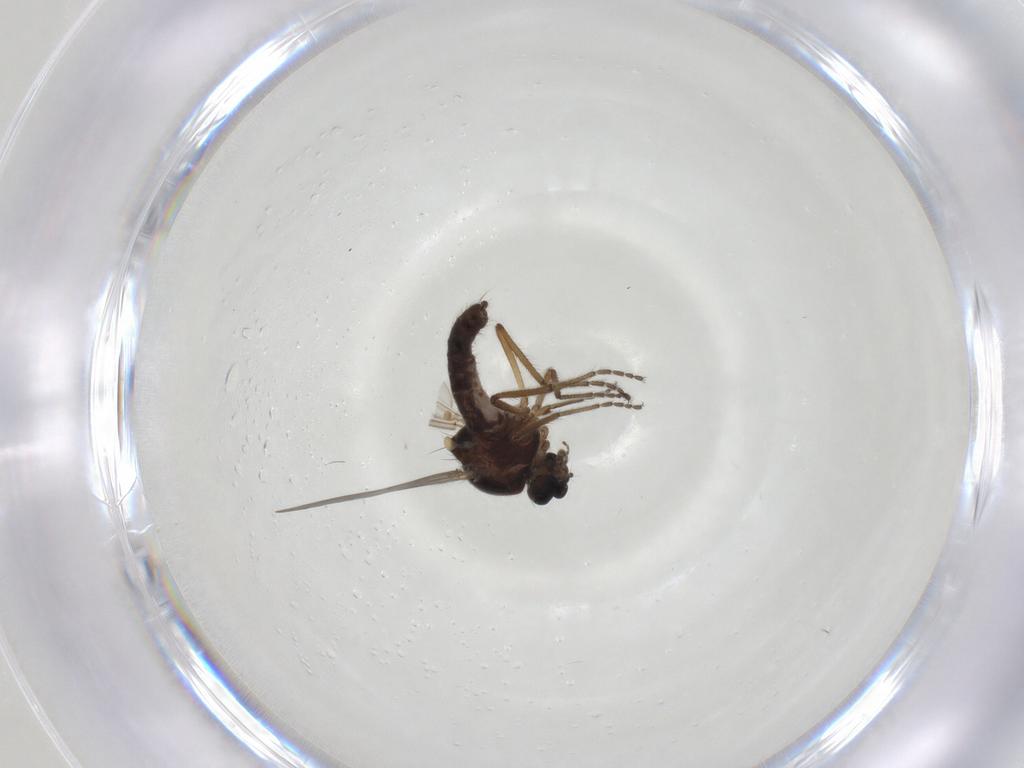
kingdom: Animalia
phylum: Arthropoda
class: Insecta
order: Diptera
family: Ceratopogonidae
